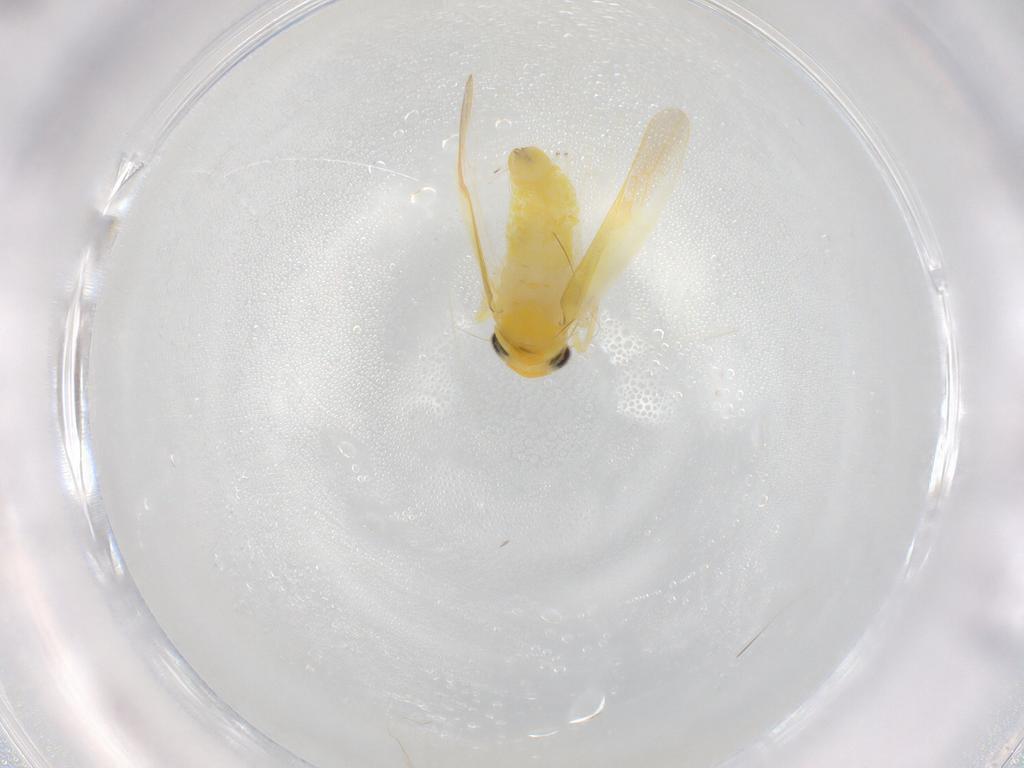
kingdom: Animalia
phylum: Arthropoda
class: Insecta
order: Hemiptera
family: Cicadellidae
